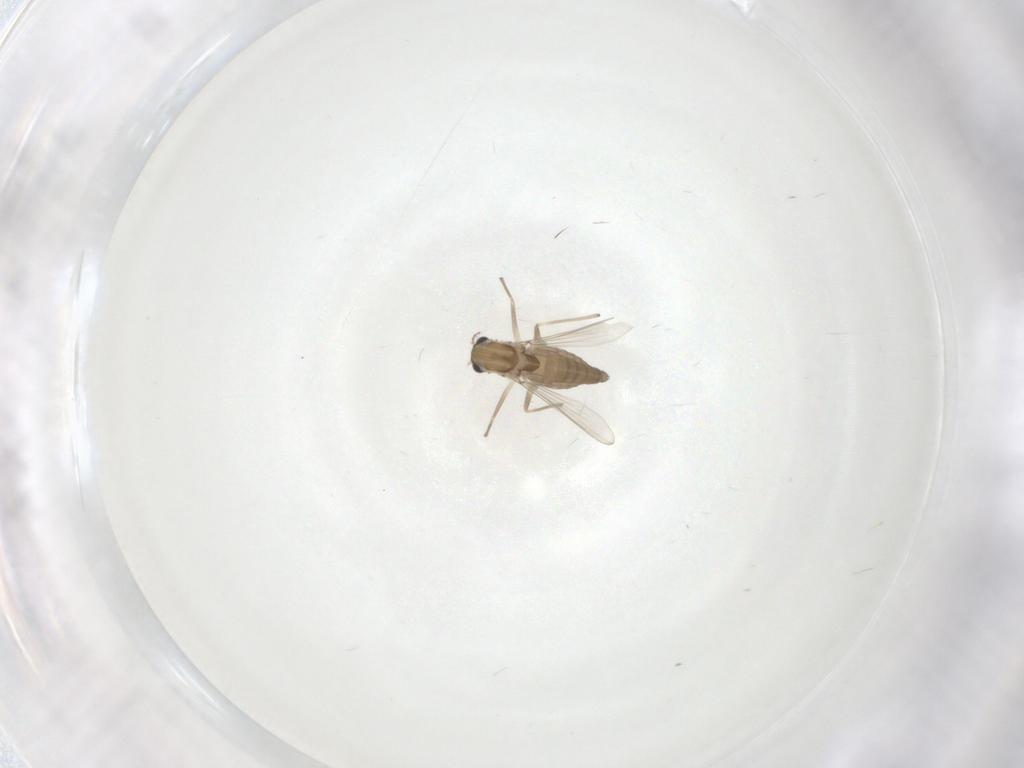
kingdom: Animalia
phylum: Arthropoda
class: Insecta
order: Diptera
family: Chironomidae
